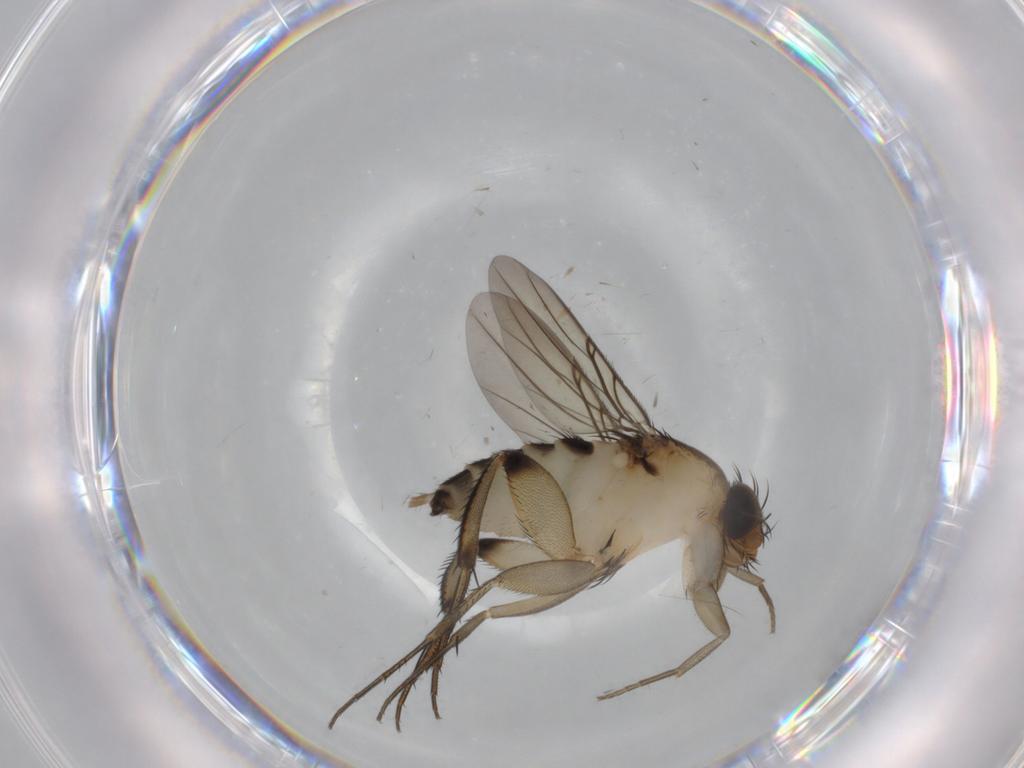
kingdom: Animalia
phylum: Arthropoda
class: Insecta
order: Diptera
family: Phoridae
